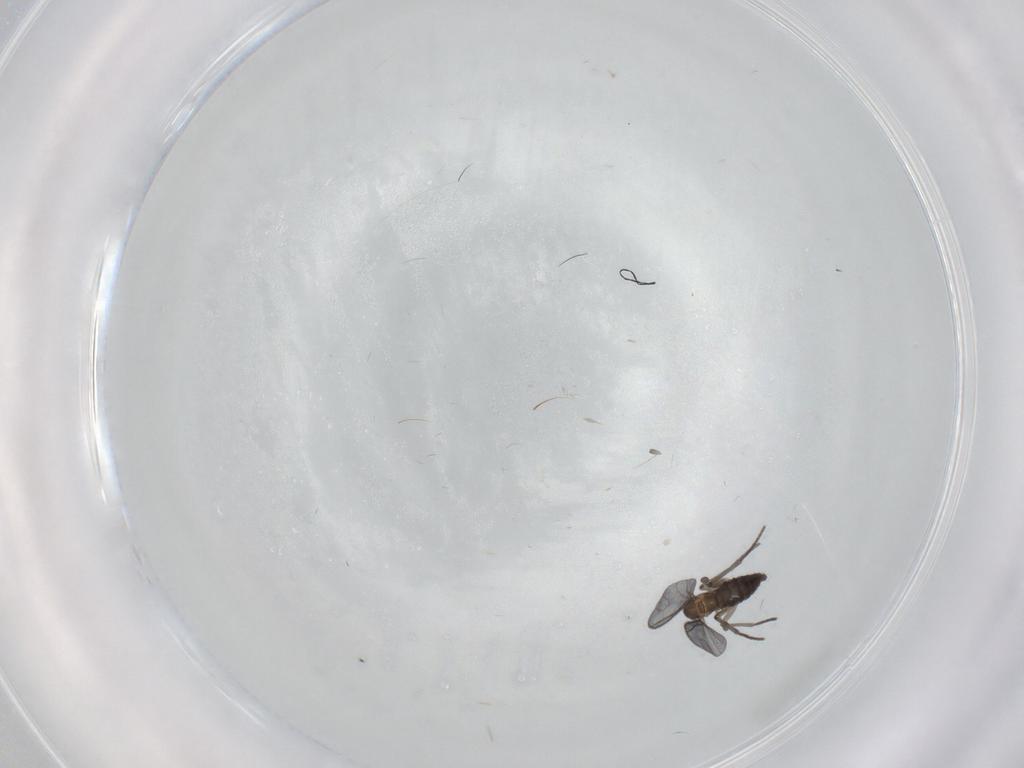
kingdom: Animalia
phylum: Arthropoda
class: Insecta
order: Diptera
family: Sciaridae
